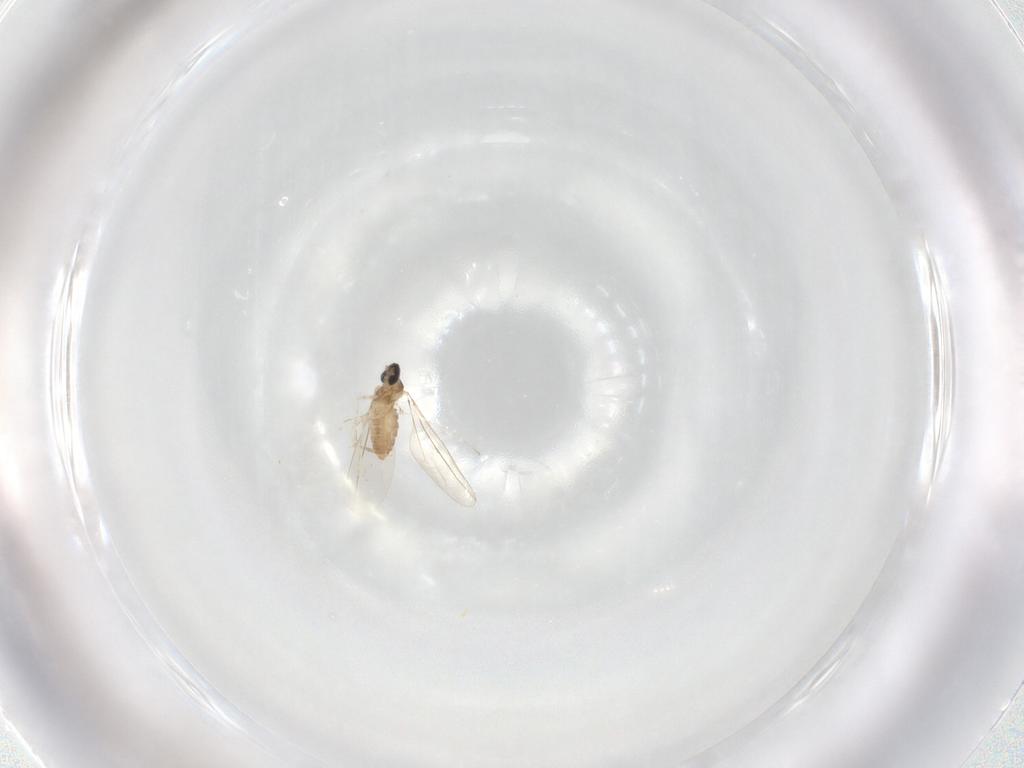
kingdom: Animalia
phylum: Arthropoda
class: Insecta
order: Diptera
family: Cecidomyiidae
